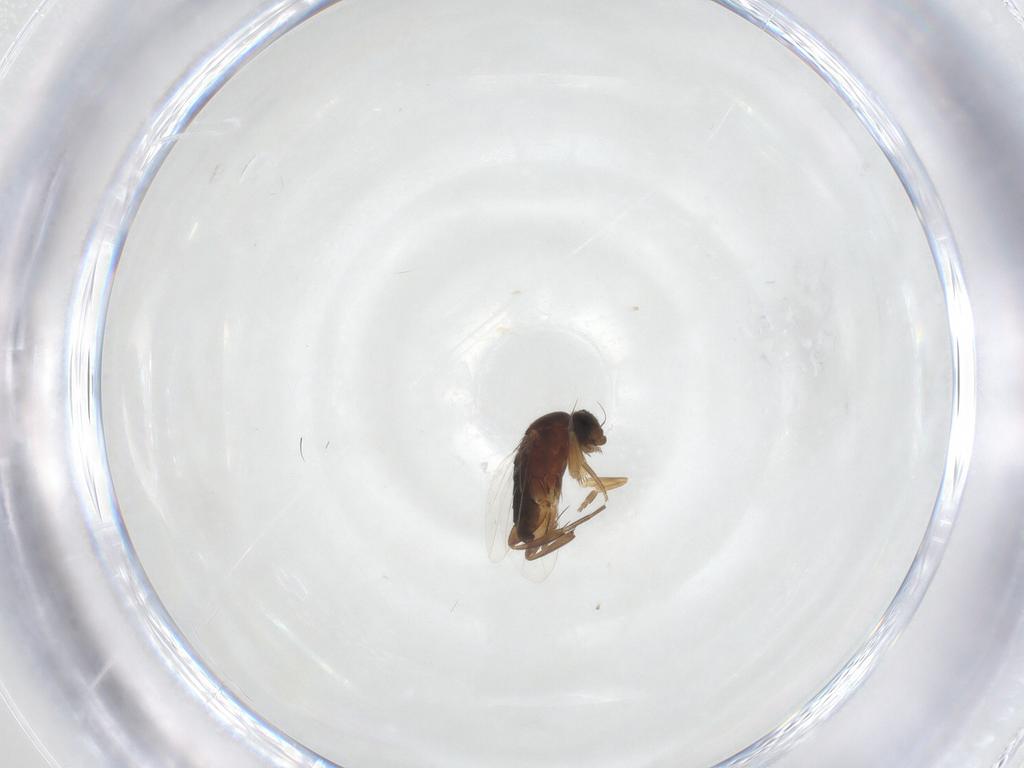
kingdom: Animalia
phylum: Arthropoda
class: Insecta
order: Diptera
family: Phoridae
